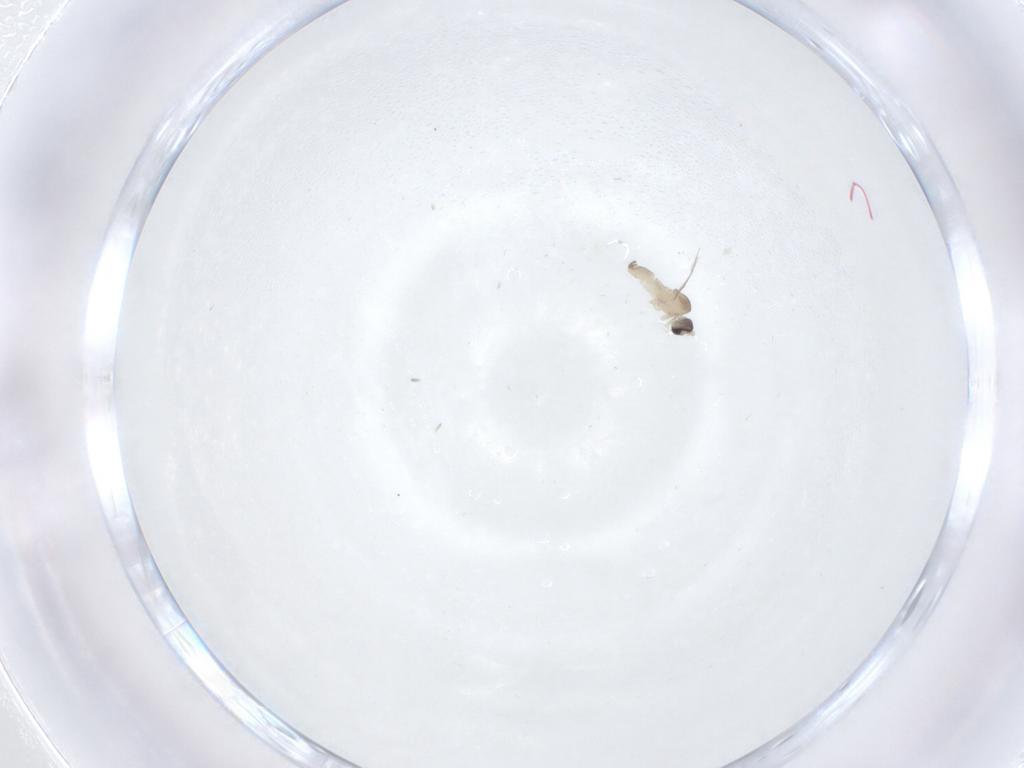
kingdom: Animalia
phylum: Arthropoda
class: Insecta
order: Diptera
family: Cecidomyiidae
